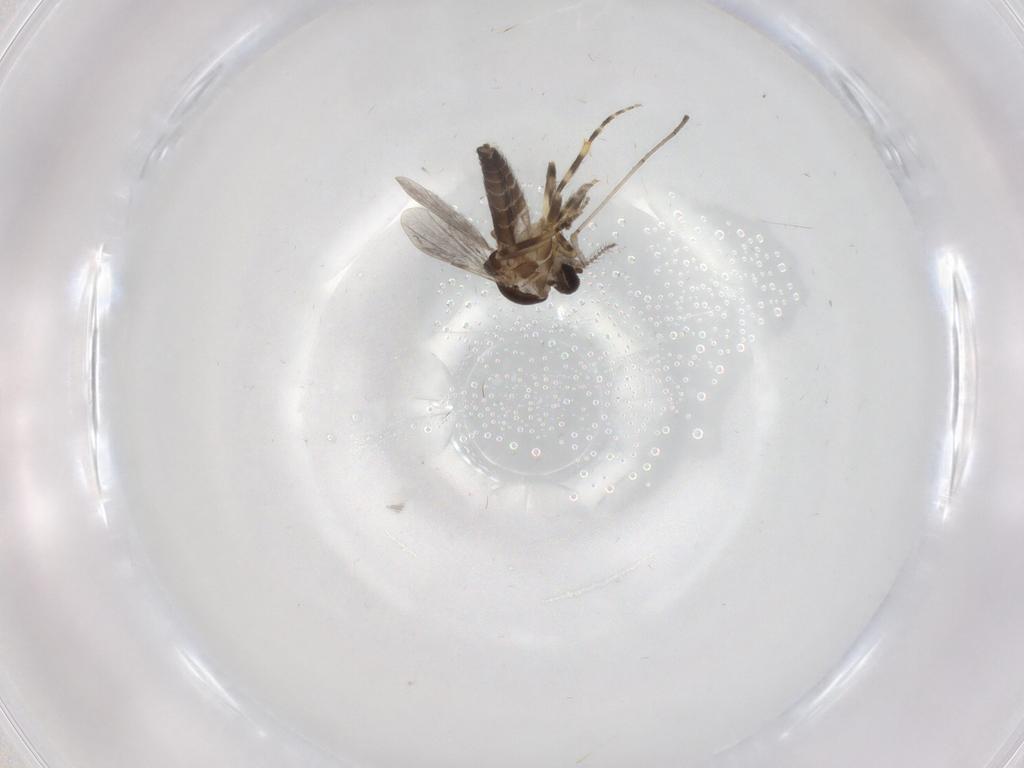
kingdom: Animalia
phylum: Arthropoda
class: Insecta
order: Diptera
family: Ceratopogonidae
